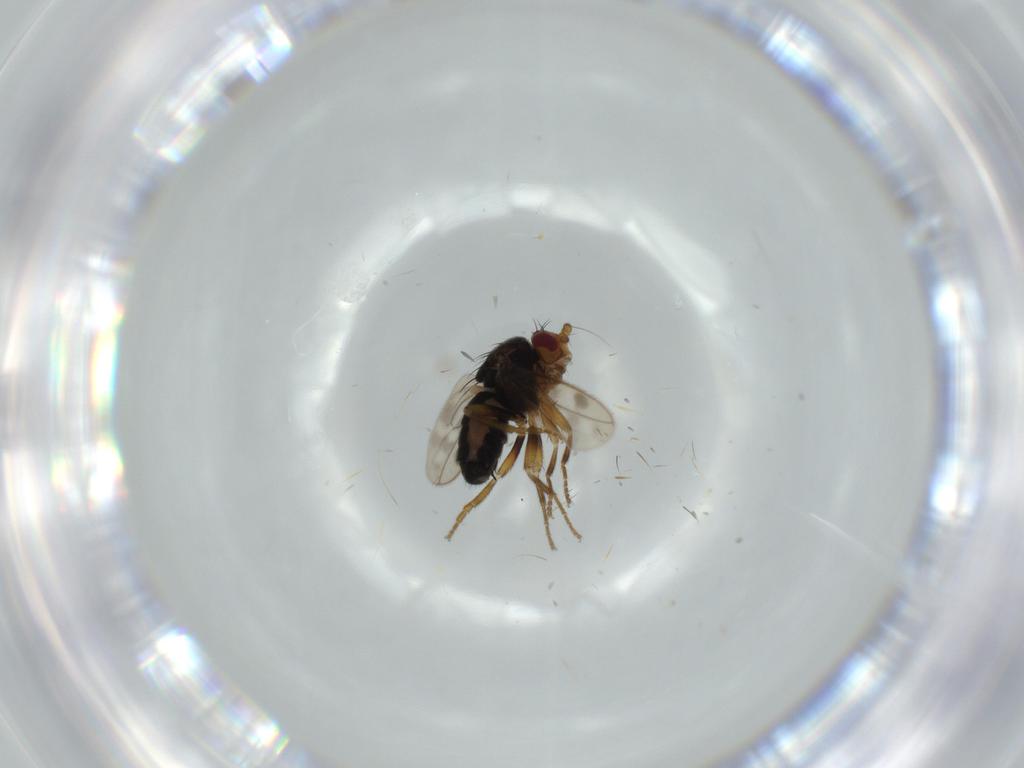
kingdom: Animalia
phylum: Arthropoda
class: Insecta
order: Diptera
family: Sphaeroceridae
